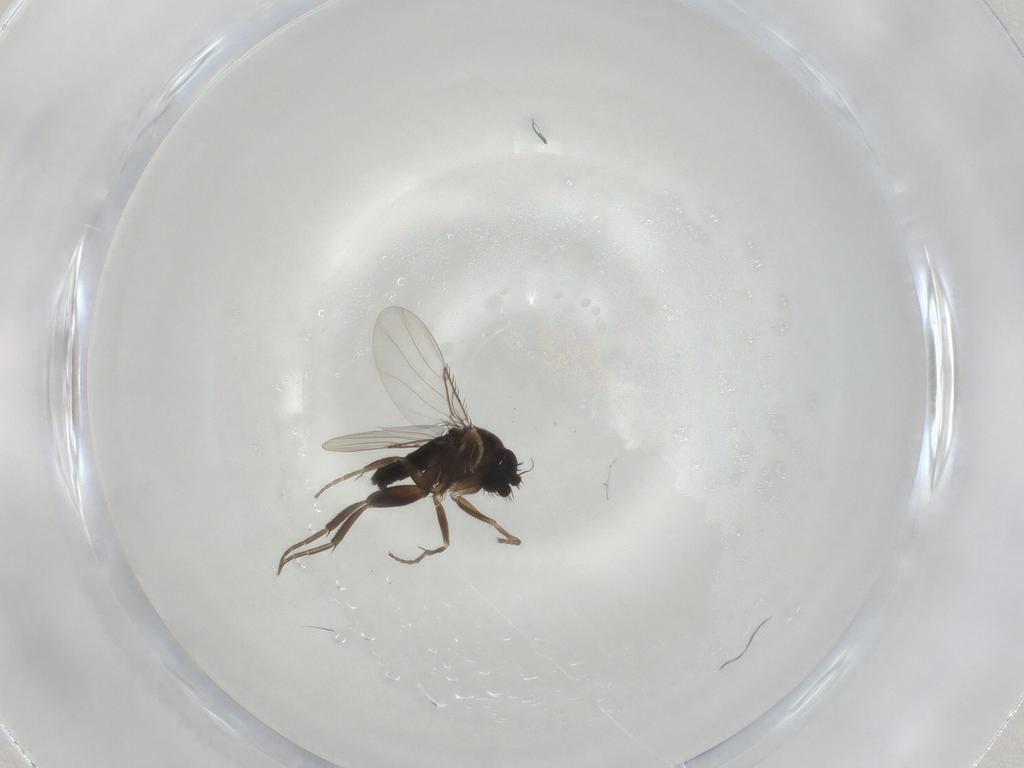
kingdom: Animalia
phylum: Arthropoda
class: Insecta
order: Diptera
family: Phoridae
